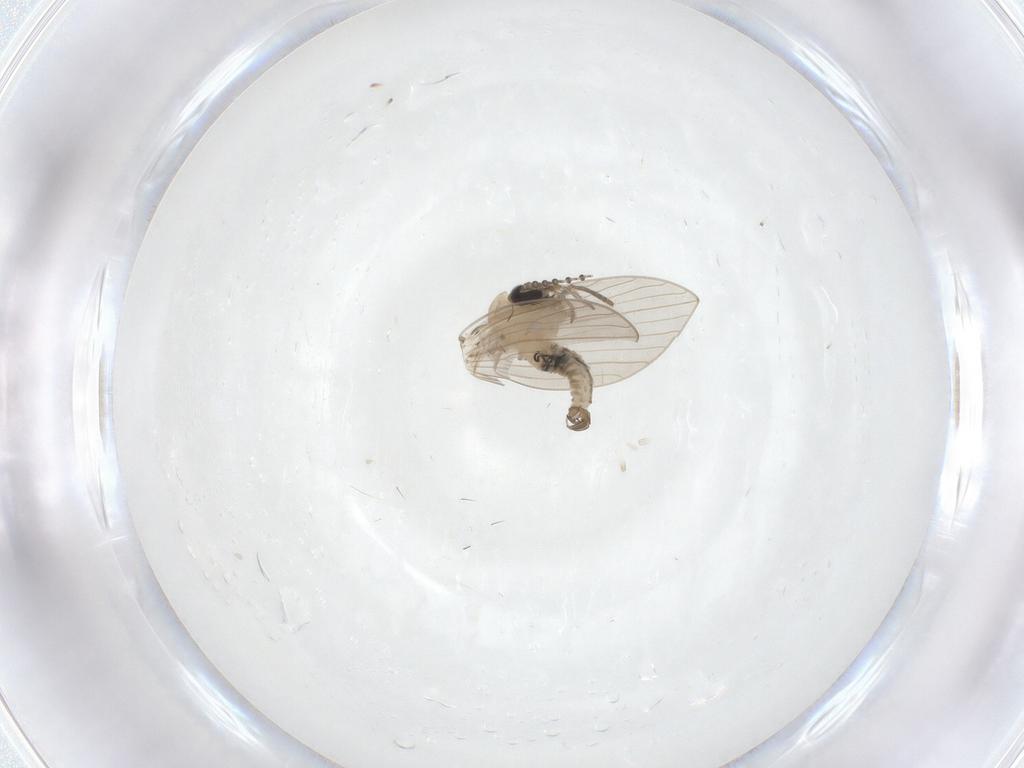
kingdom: Animalia
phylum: Arthropoda
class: Insecta
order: Diptera
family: Psychodidae
